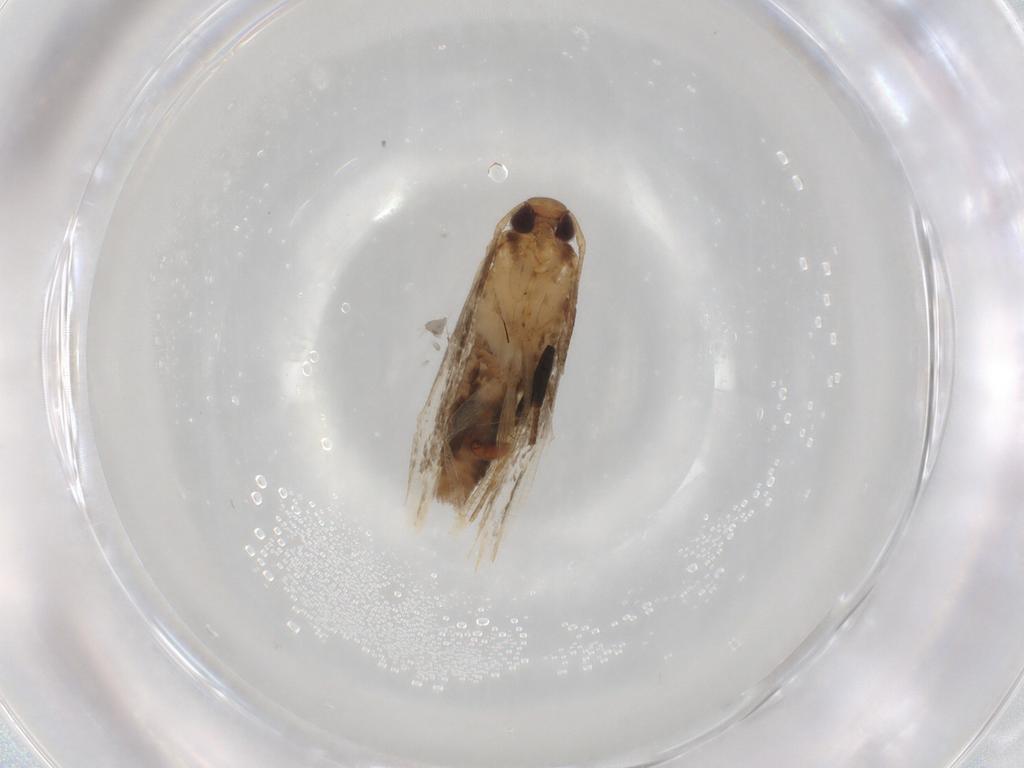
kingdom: Animalia
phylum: Arthropoda
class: Insecta
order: Lepidoptera
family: Cosmopterigidae
